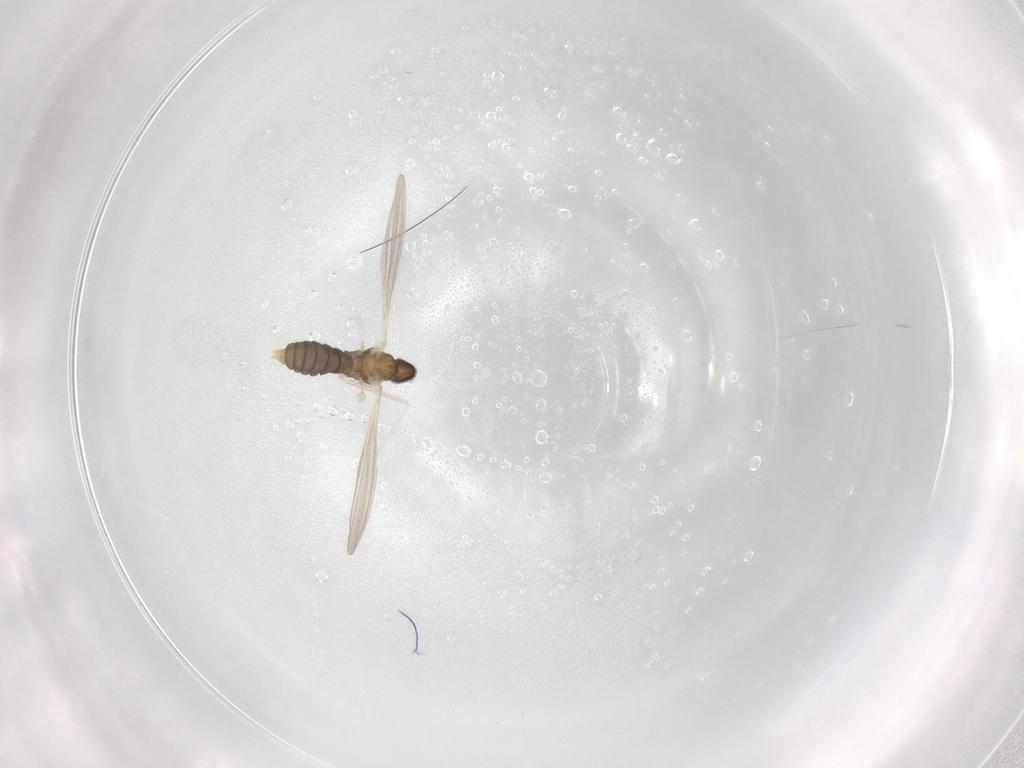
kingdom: Animalia
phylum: Arthropoda
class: Insecta
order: Diptera
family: Cecidomyiidae
